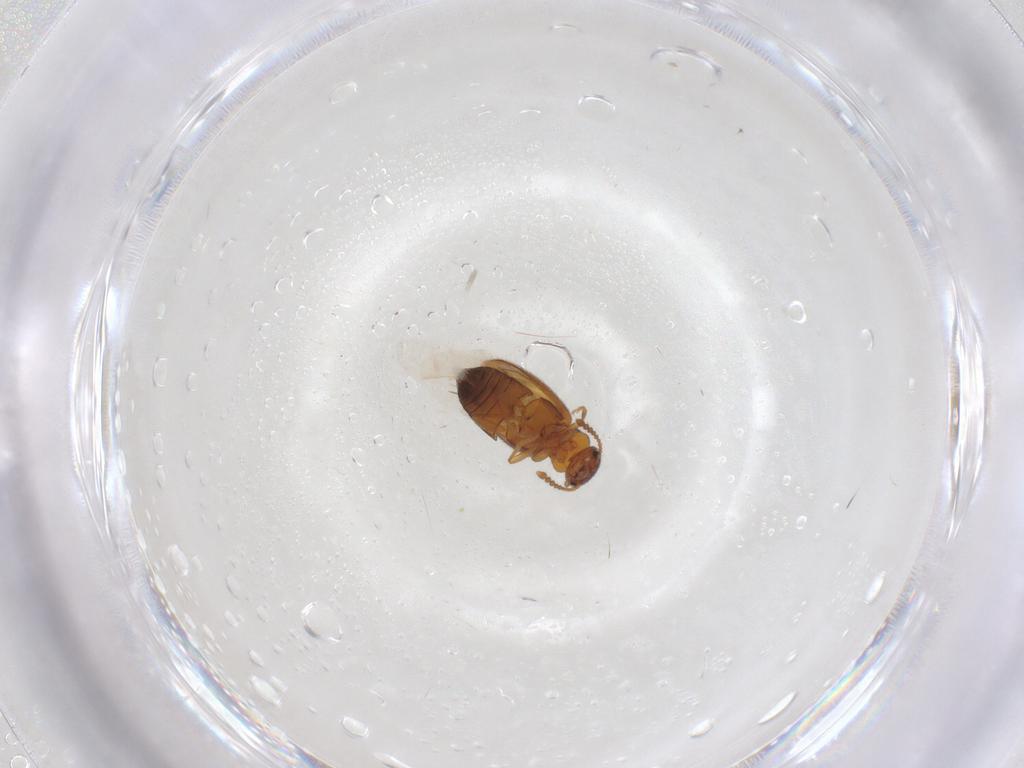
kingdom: Animalia
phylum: Arthropoda
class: Insecta
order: Coleoptera
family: Anthicidae
